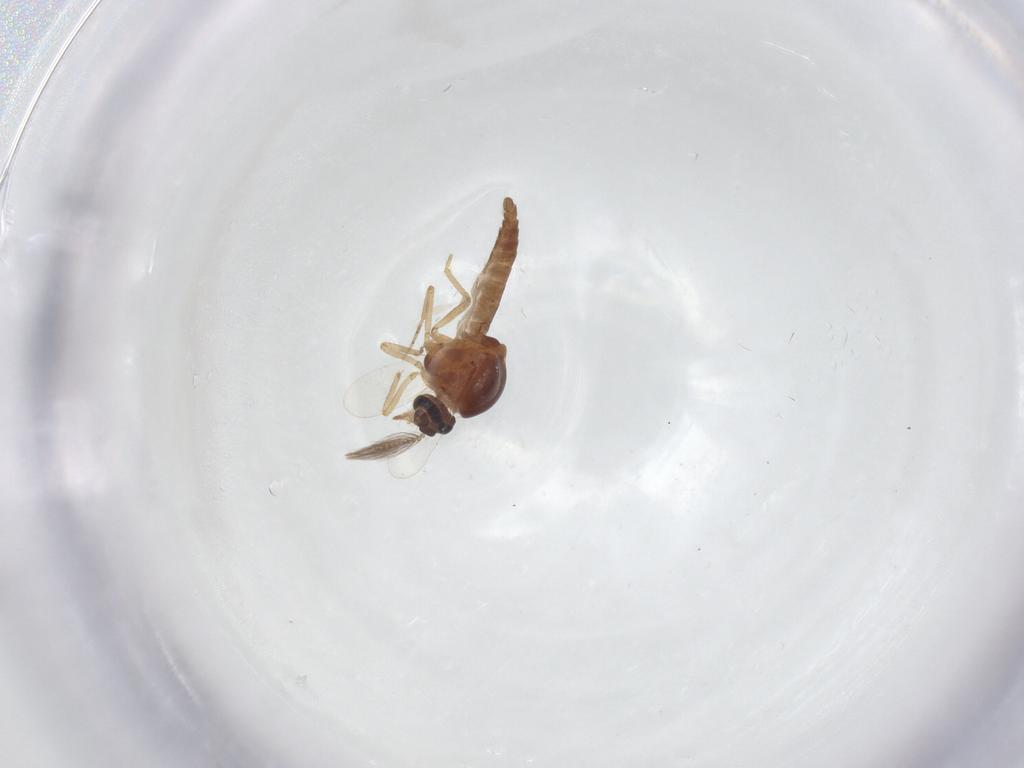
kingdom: Animalia
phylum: Arthropoda
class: Insecta
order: Diptera
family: Ceratopogonidae
